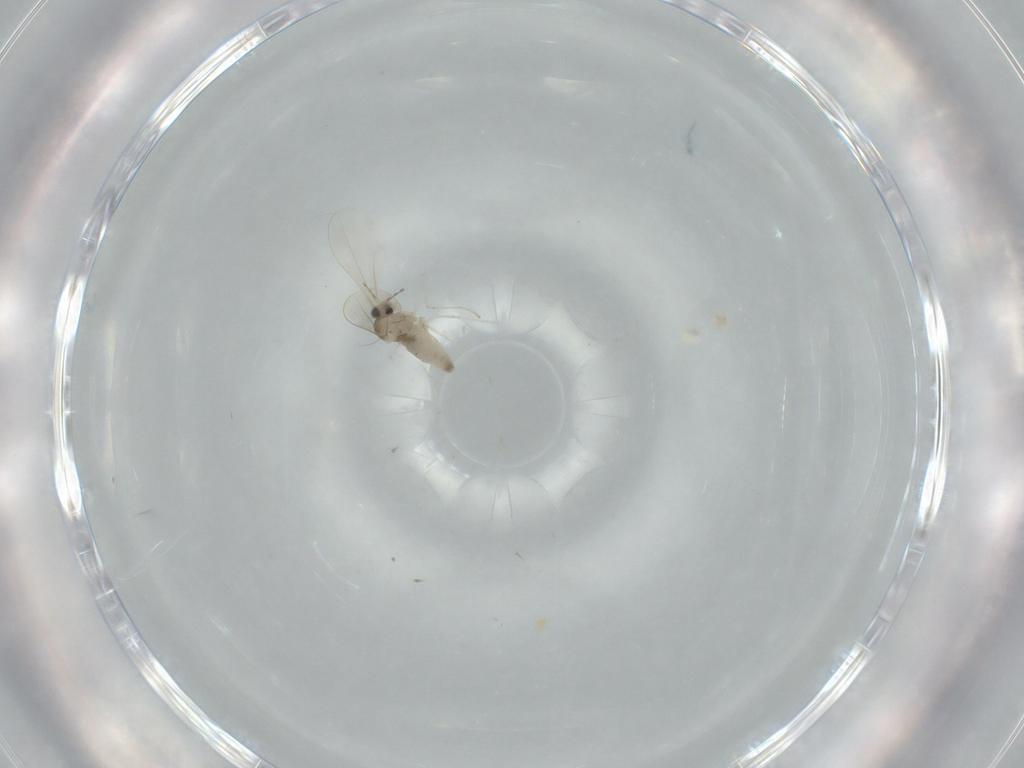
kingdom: Animalia
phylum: Arthropoda
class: Insecta
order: Diptera
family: Cecidomyiidae
